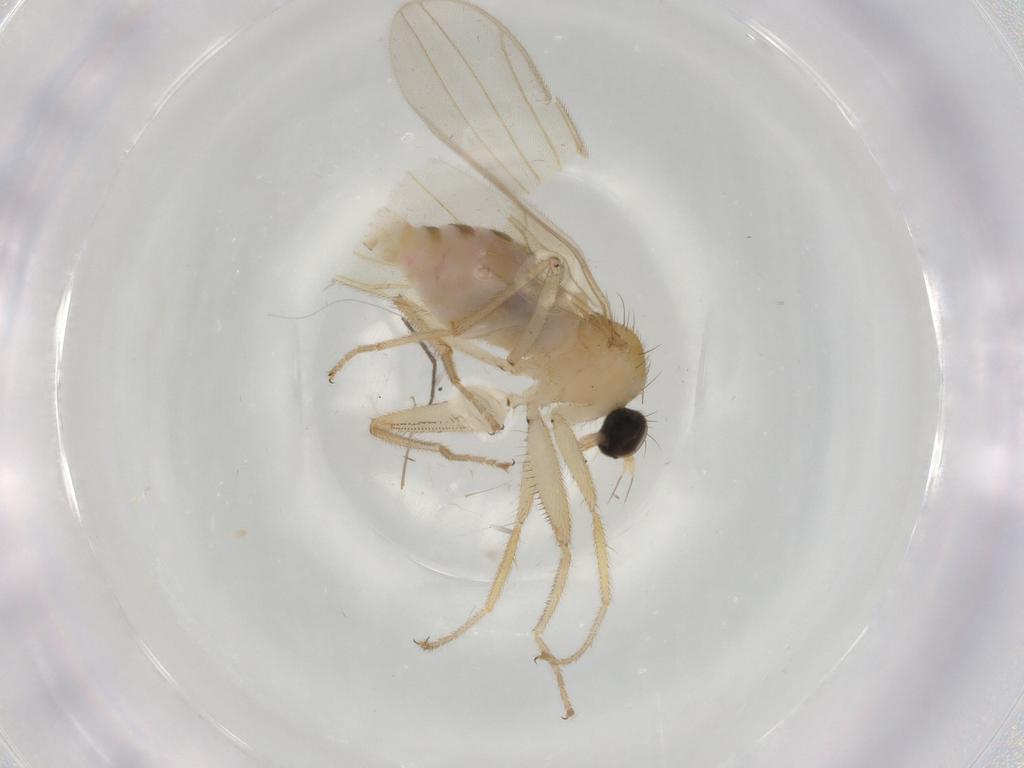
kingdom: Animalia
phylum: Arthropoda
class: Insecta
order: Diptera
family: Hybotidae
